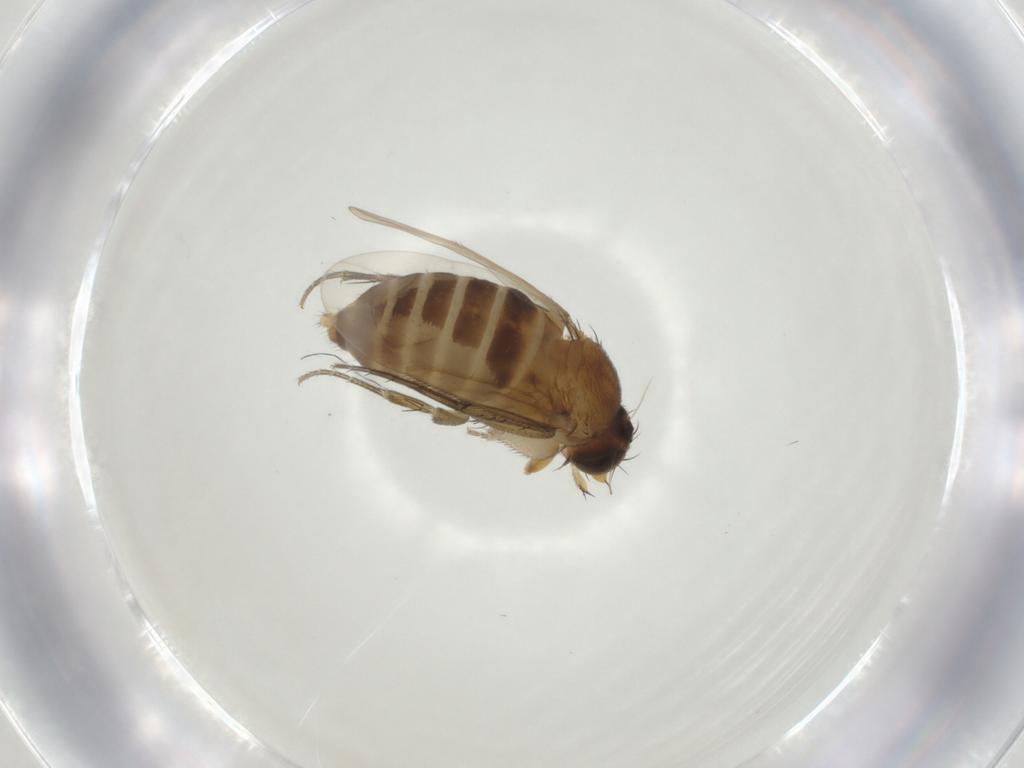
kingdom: Animalia
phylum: Arthropoda
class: Insecta
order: Diptera
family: Phoridae
